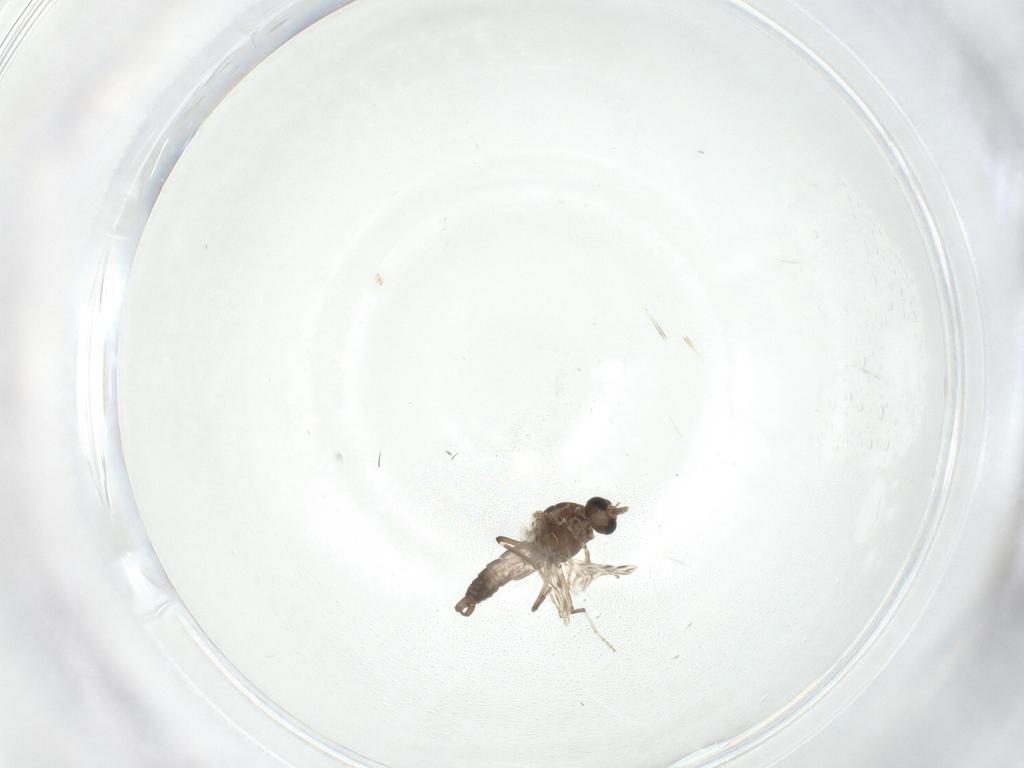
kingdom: Animalia
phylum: Arthropoda
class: Insecta
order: Diptera
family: Ceratopogonidae
